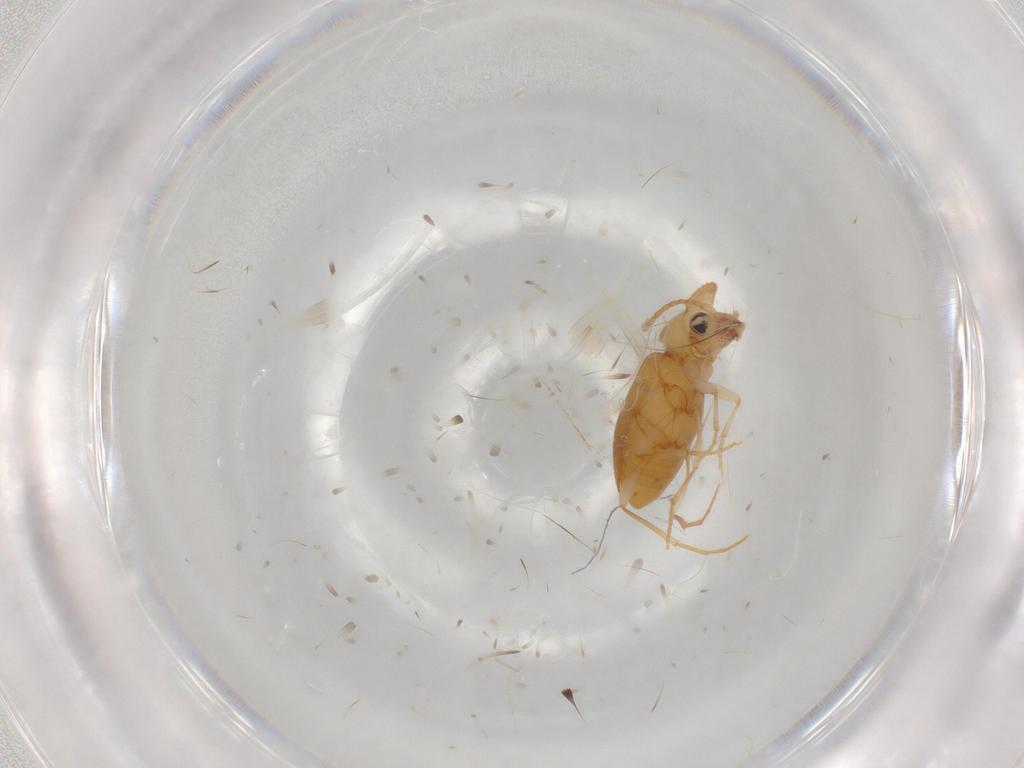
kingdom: Animalia
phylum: Arthropoda
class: Insecta
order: Coleoptera
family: Anthicidae
